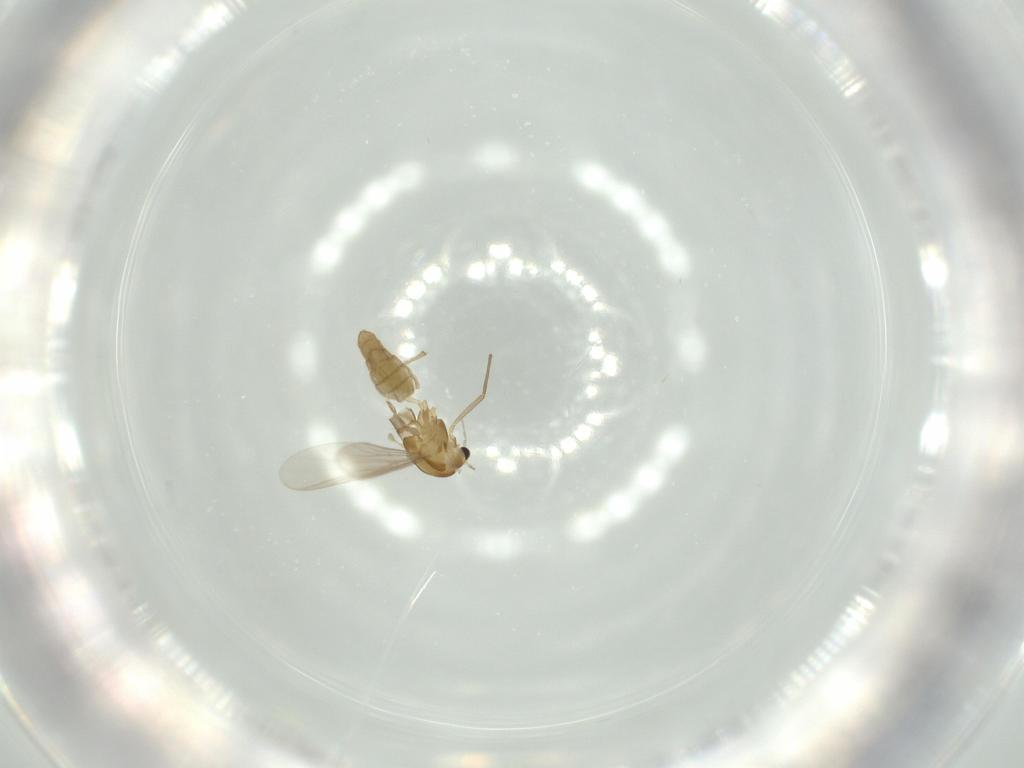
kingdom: Animalia
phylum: Arthropoda
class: Insecta
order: Diptera
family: Chironomidae
